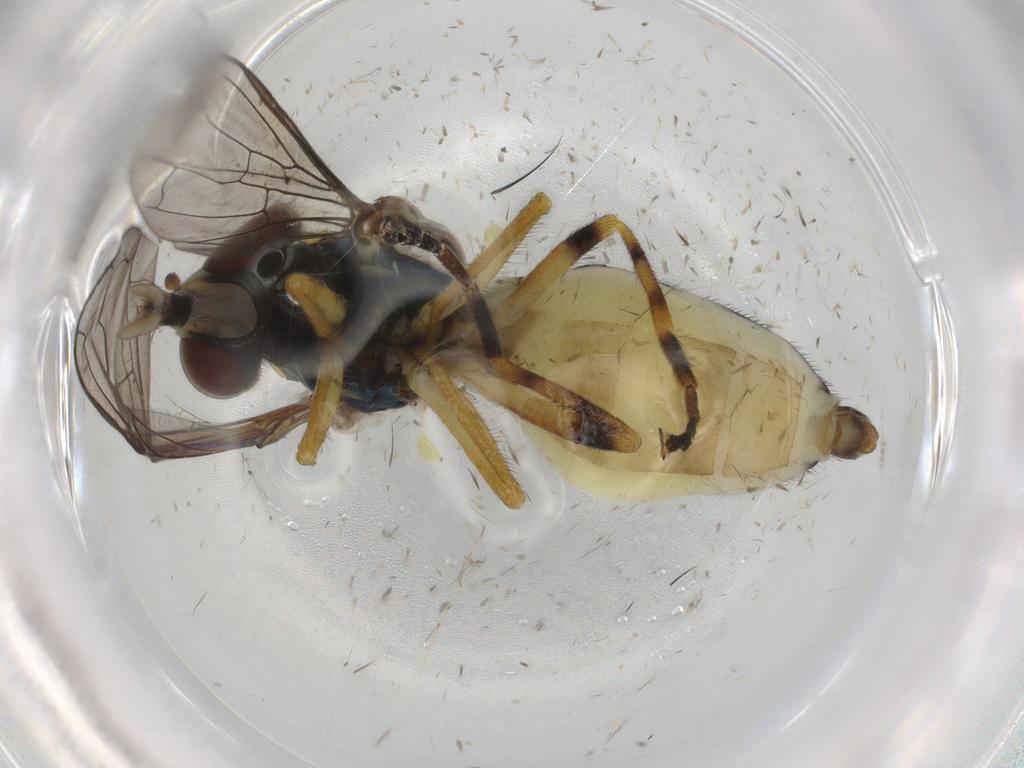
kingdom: Animalia
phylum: Arthropoda
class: Insecta
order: Diptera
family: Syrphidae
